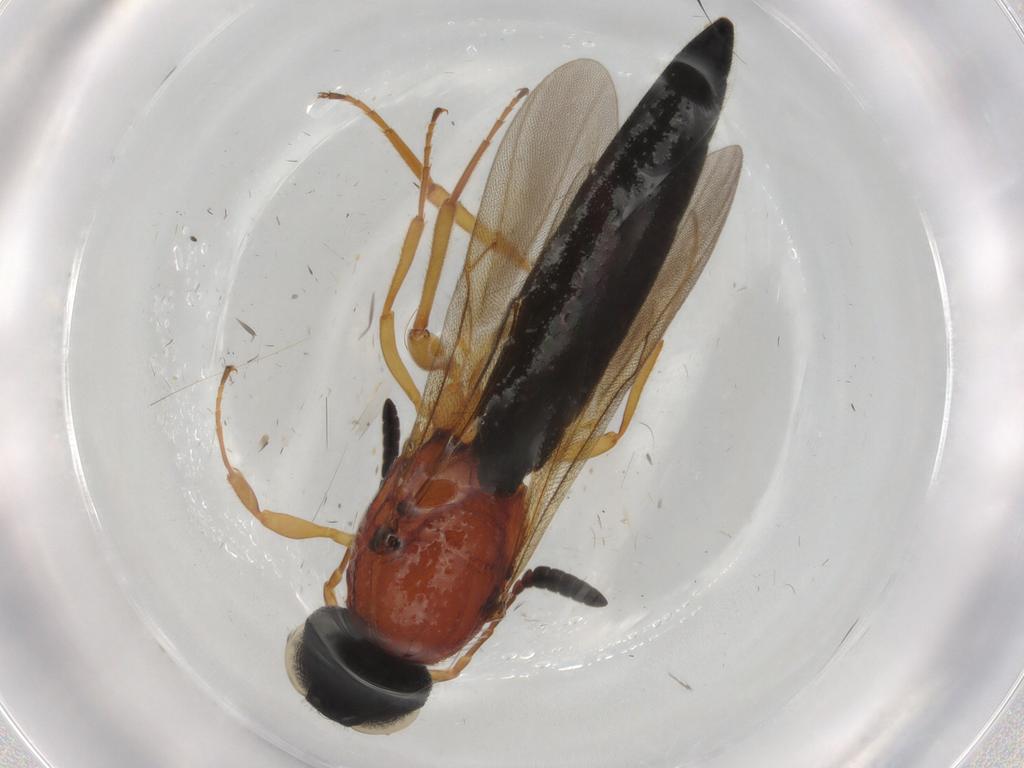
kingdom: Animalia
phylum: Arthropoda
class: Insecta
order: Hymenoptera
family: Scelionidae
